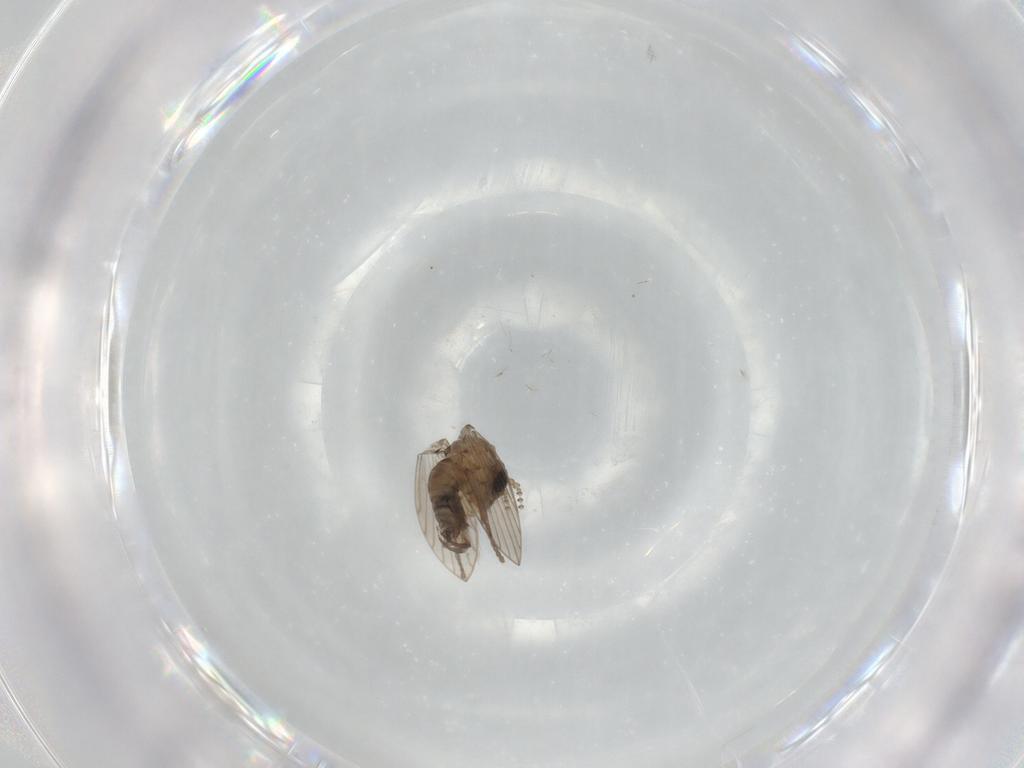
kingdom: Animalia
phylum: Arthropoda
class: Insecta
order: Diptera
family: Psychodidae
